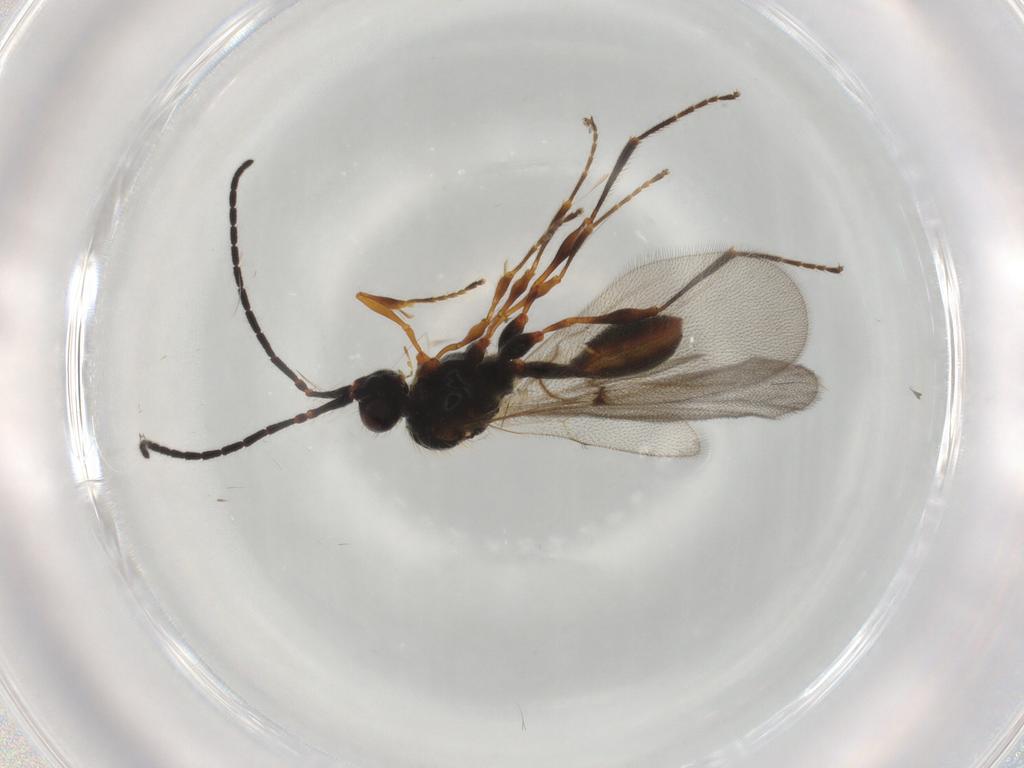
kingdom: Animalia
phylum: Arthropoda
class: Insecta
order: Hymenoptera
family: Diapriidae
